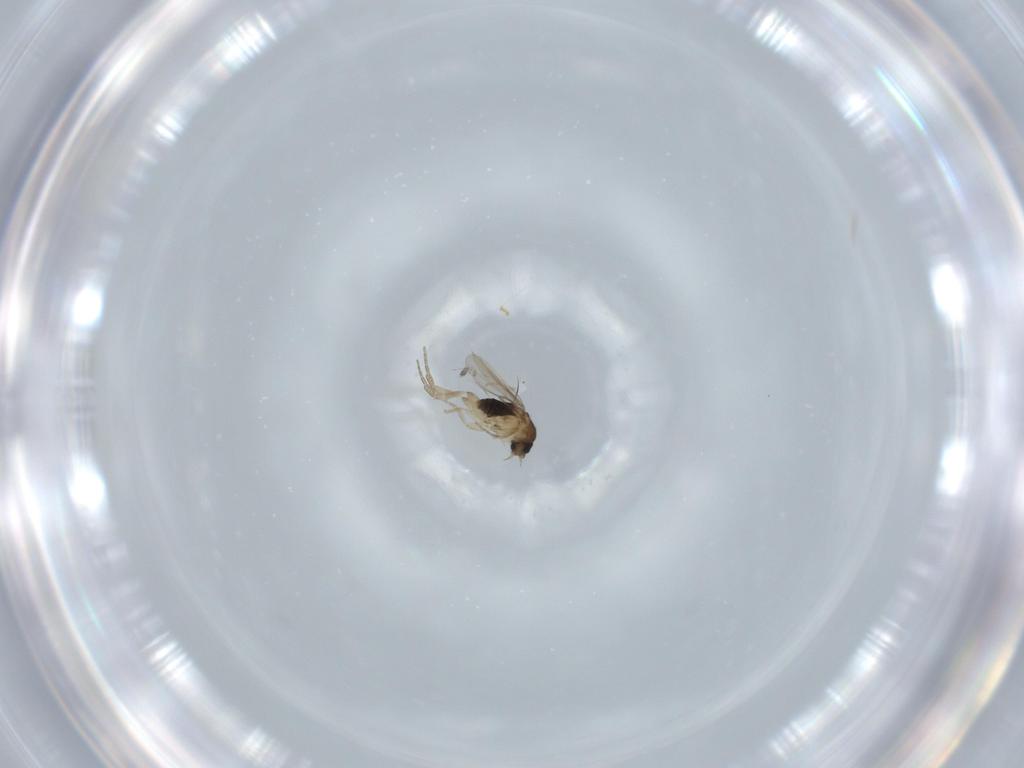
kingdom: Animalia
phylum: Arthropoda
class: Insecta
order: Diptera
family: Phoridae
